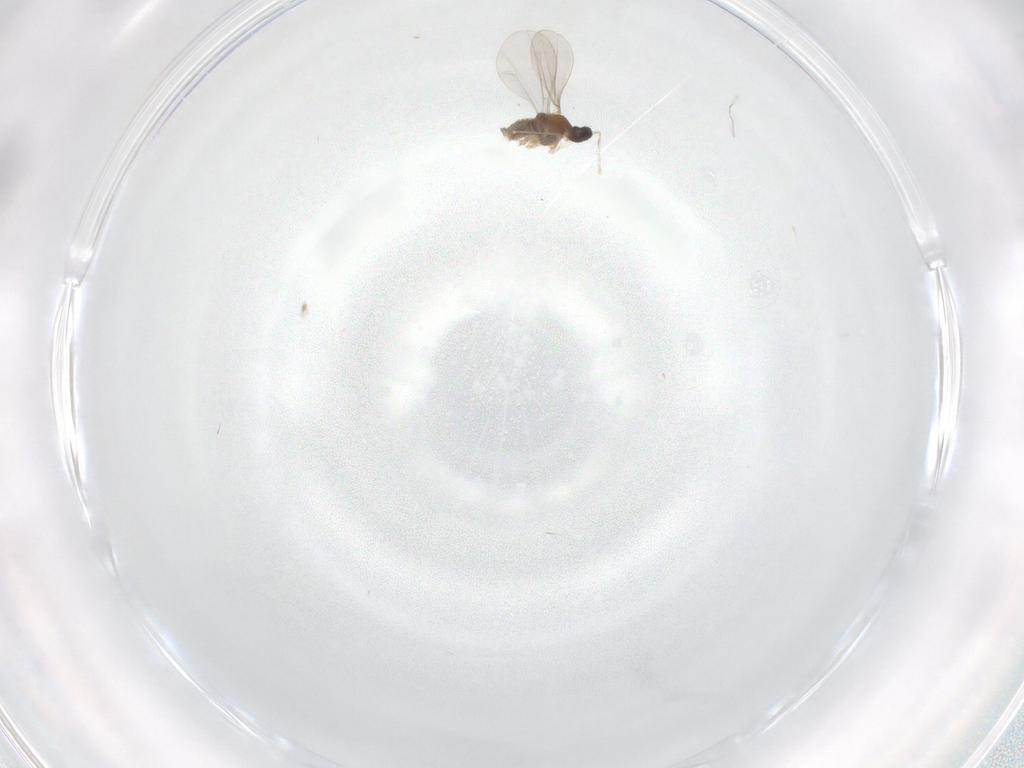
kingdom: Animalia
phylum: Arthropoda
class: Insecta
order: Diptera
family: Cecidomyiidae
